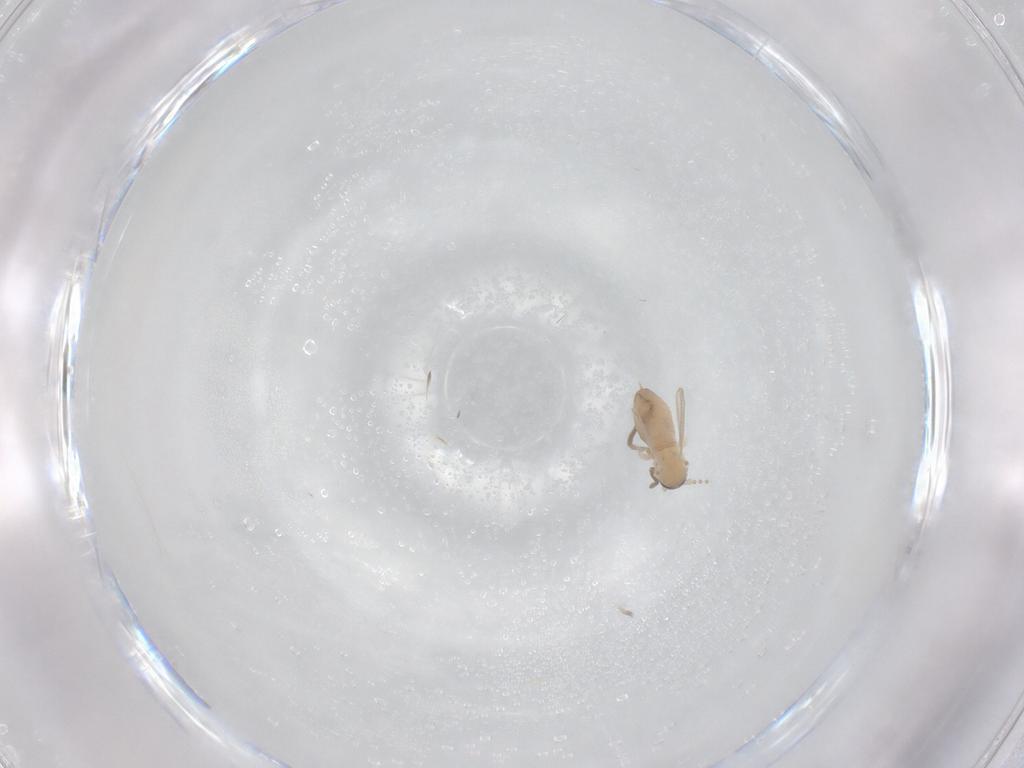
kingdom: Animalia
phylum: Arthropoda
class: Insecta
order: Diptera
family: Psychodidae
